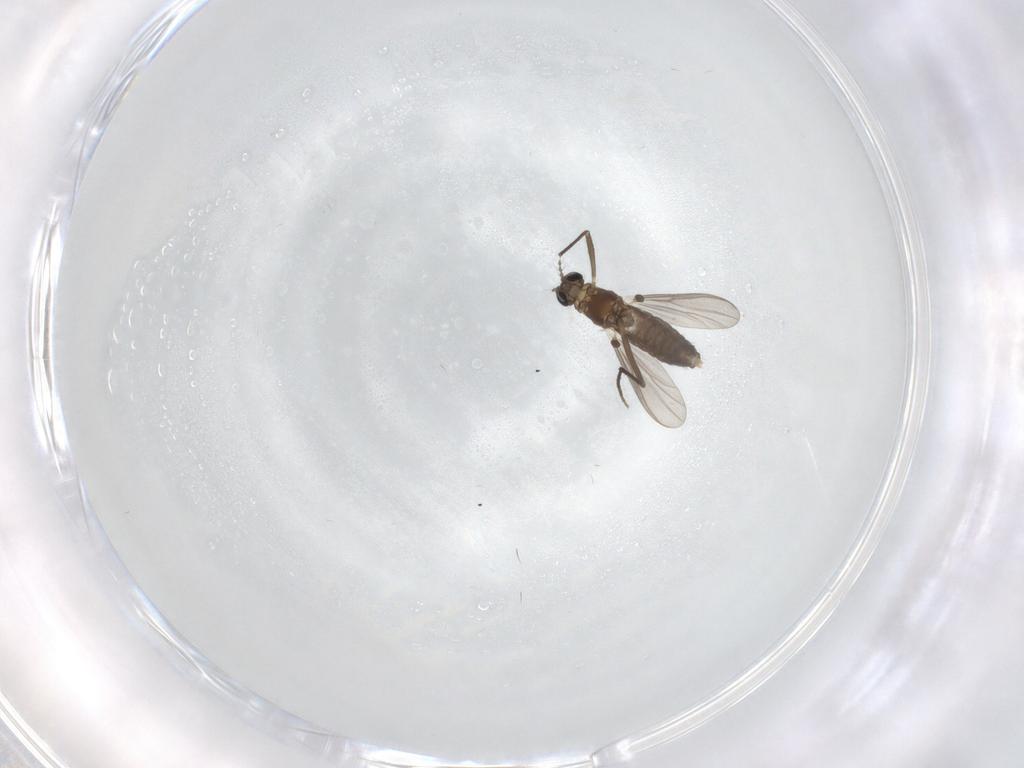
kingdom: Animalia
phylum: Arthropoda
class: Insecta
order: Diptera
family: Chironomidae
